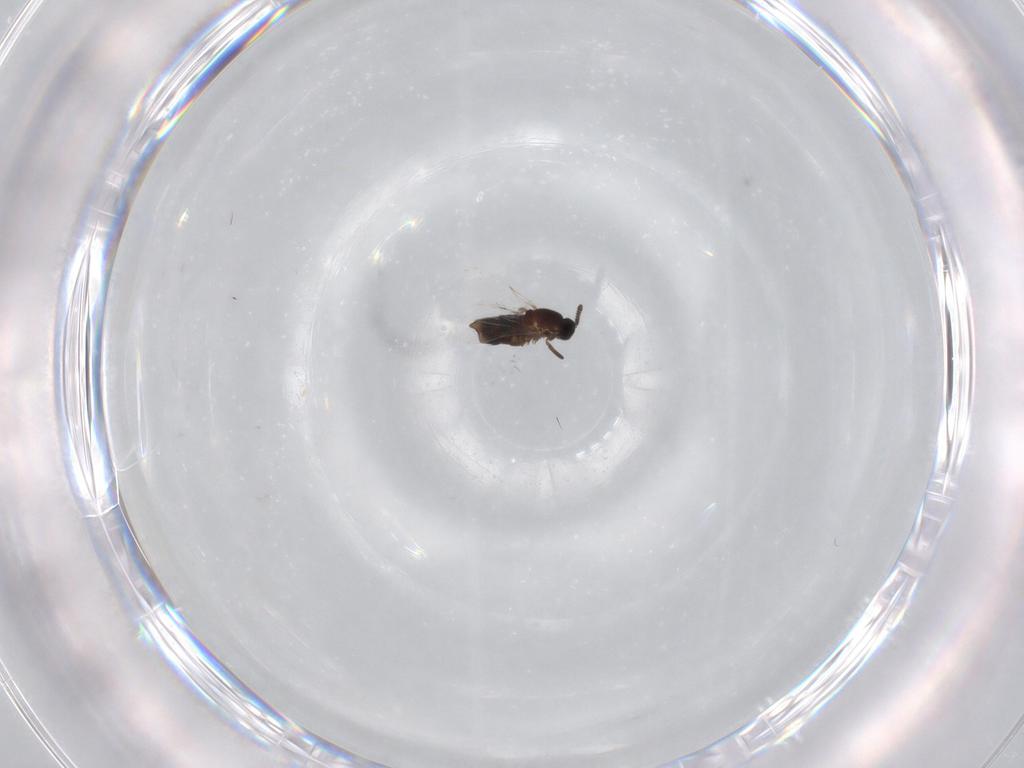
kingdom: Animalia
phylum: Arthropoda
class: Insecta
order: Diptera
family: Scatopsidae
